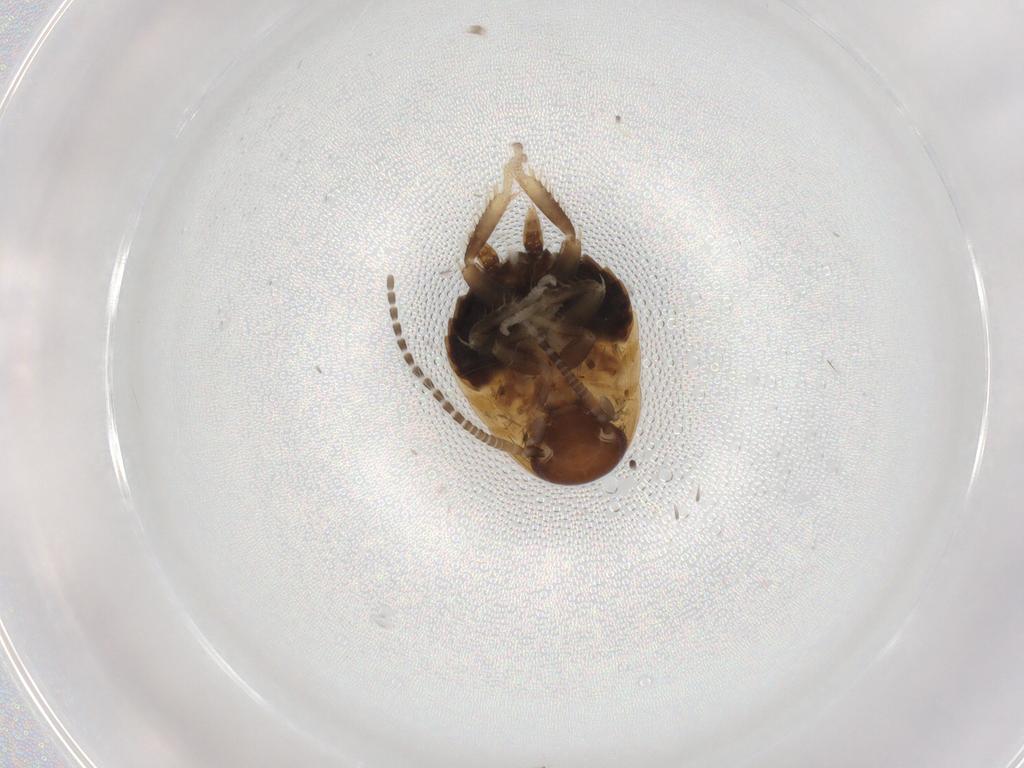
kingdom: Animalia
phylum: Arthropoda
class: Insecta
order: Blattodea
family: Ectobiidae
